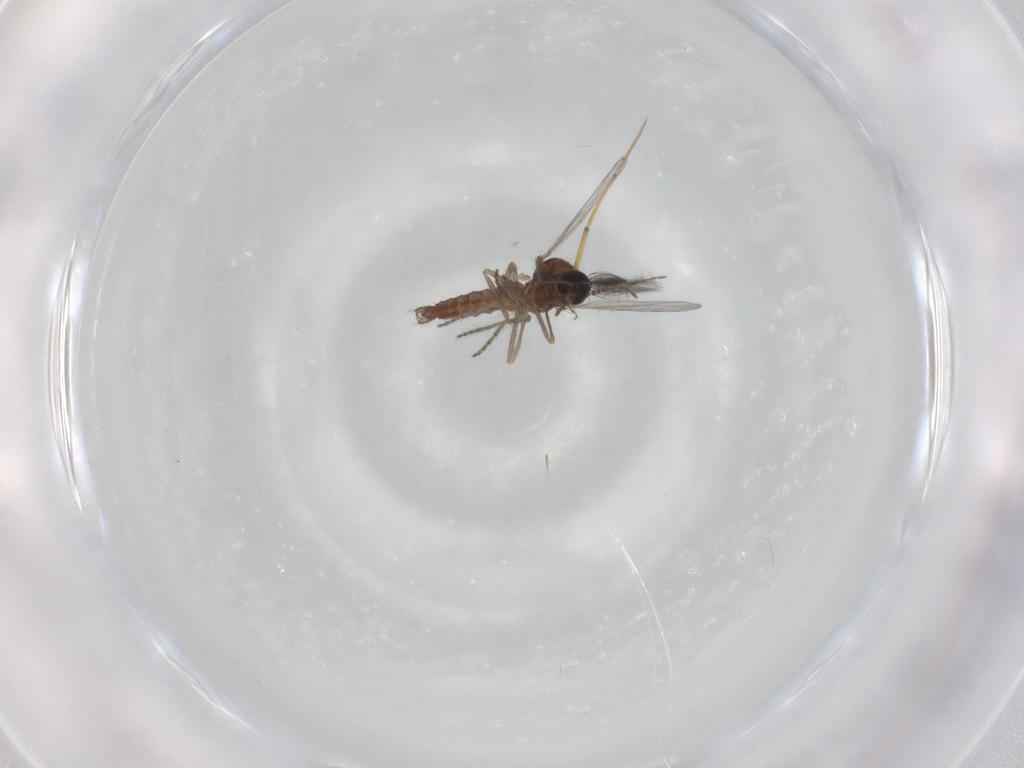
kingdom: Animalia
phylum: Arthropoda
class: Insecta
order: Diptera
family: Ceratopogonidae
